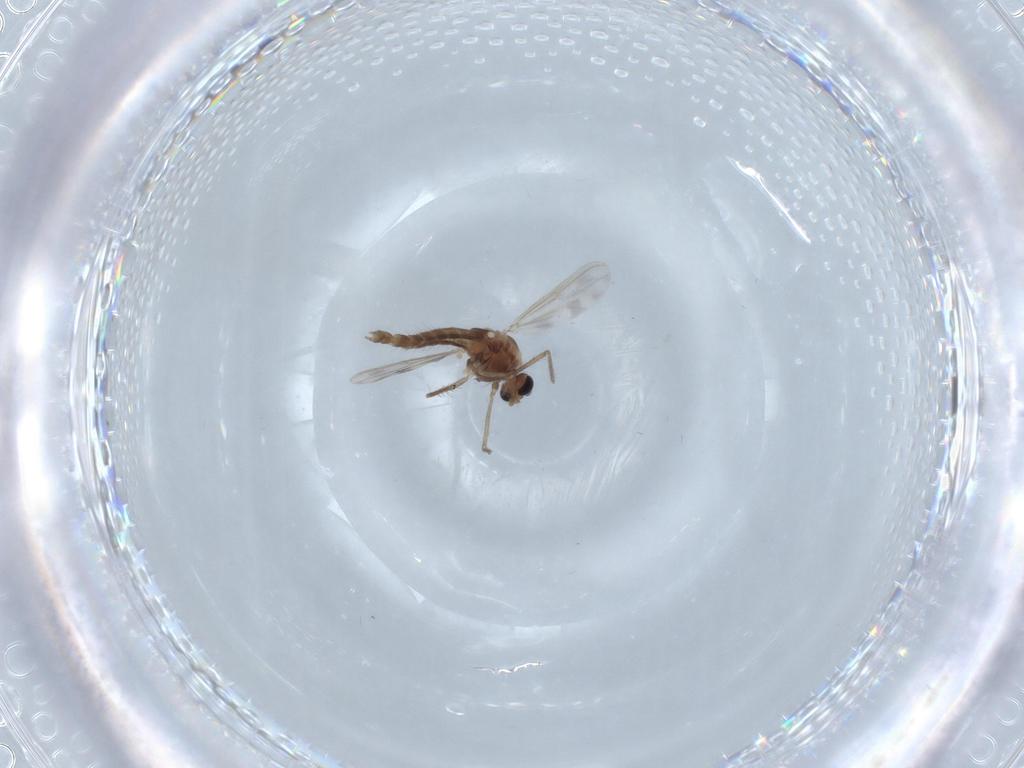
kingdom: Animalia
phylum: Arthropoda
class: Insecta
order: Diptera
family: Chironomidae
